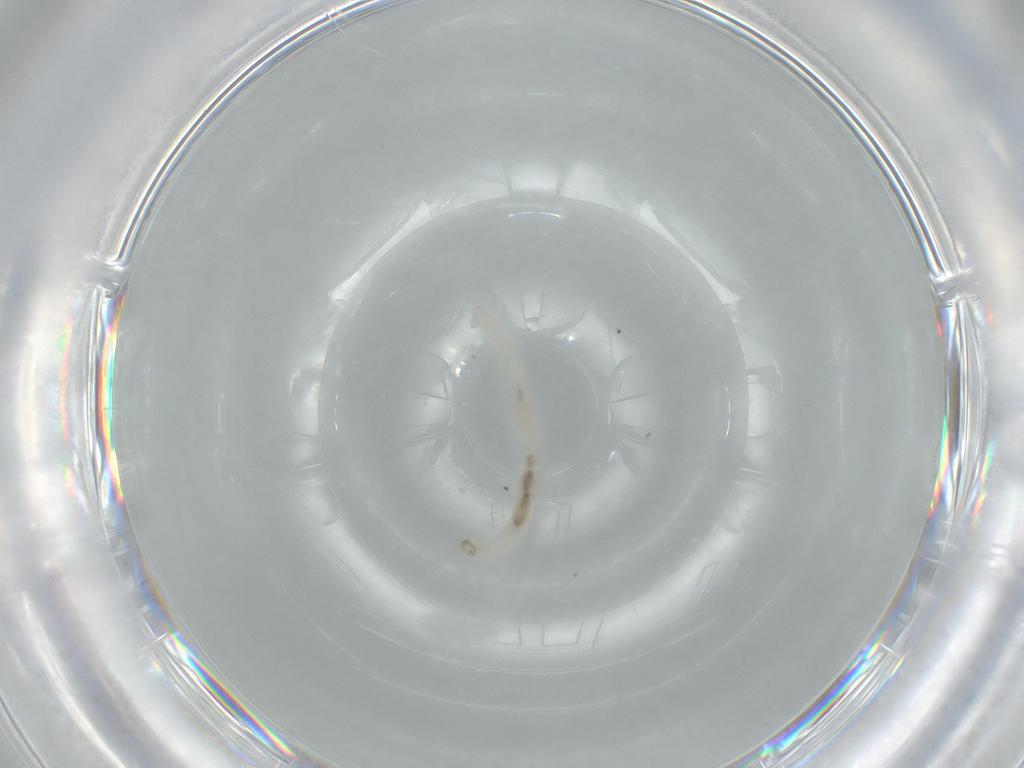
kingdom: Animalia
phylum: Arthropoda
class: Insecta
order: Diptera
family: Chironomidae
